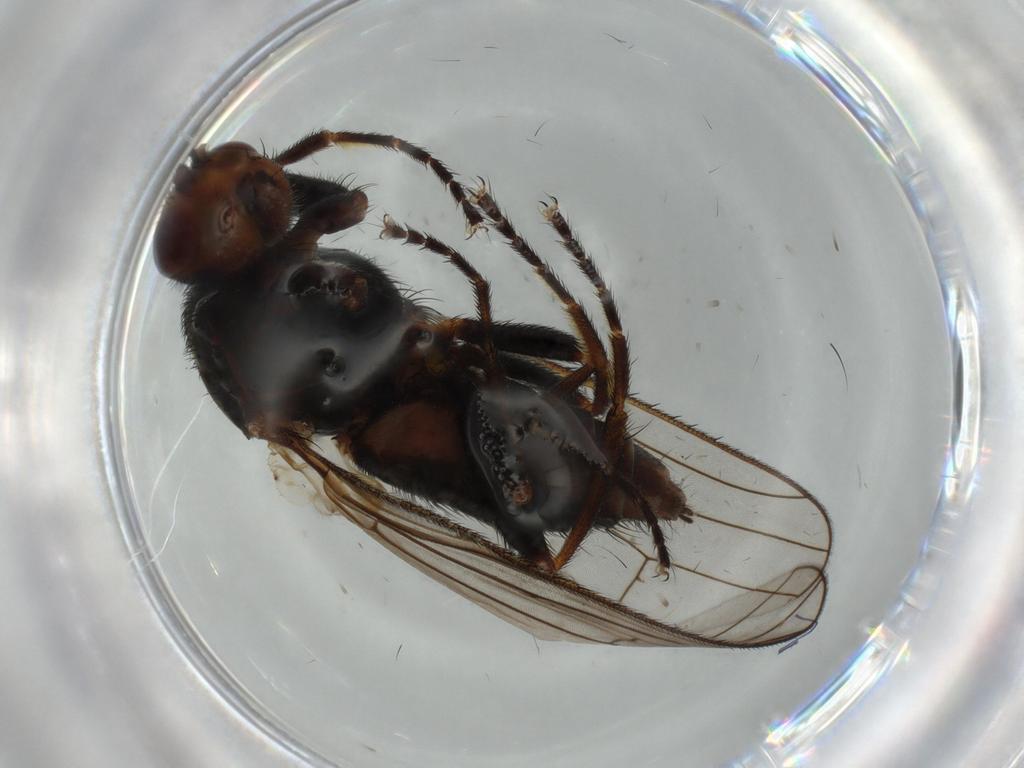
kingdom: Animalia
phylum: Arthropoda
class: Insecta
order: Diptera
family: Heleomyzidae
